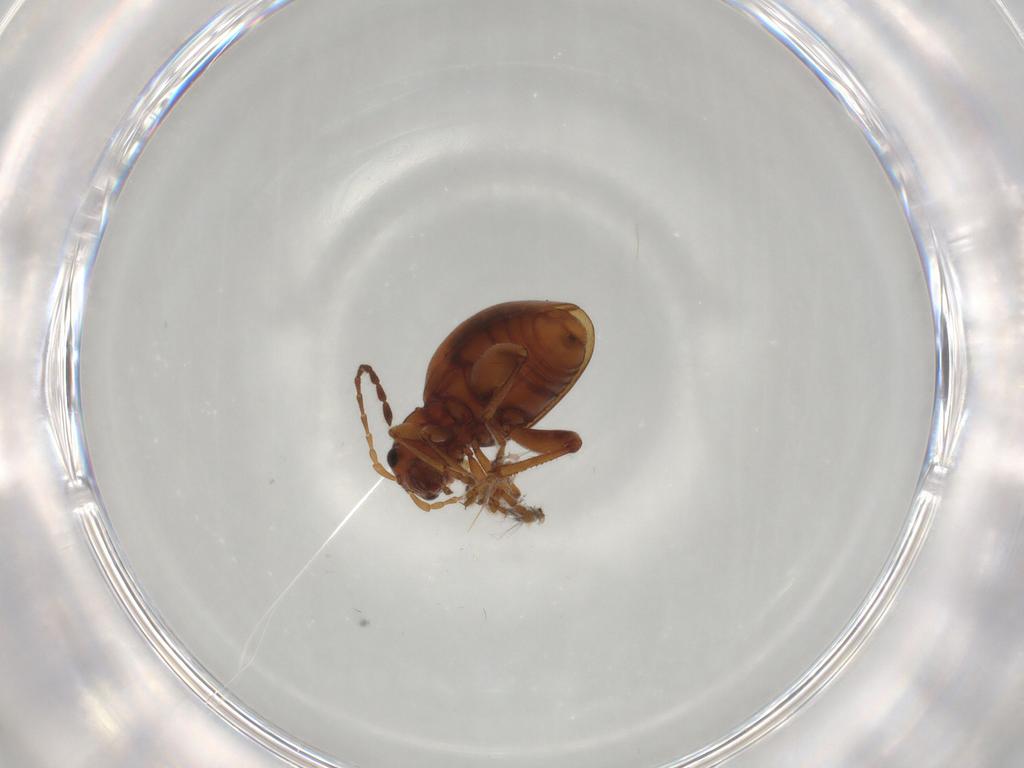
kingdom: Animalia
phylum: Arthropoda
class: Insecta
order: Coleoptera
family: Chrysomelidae
